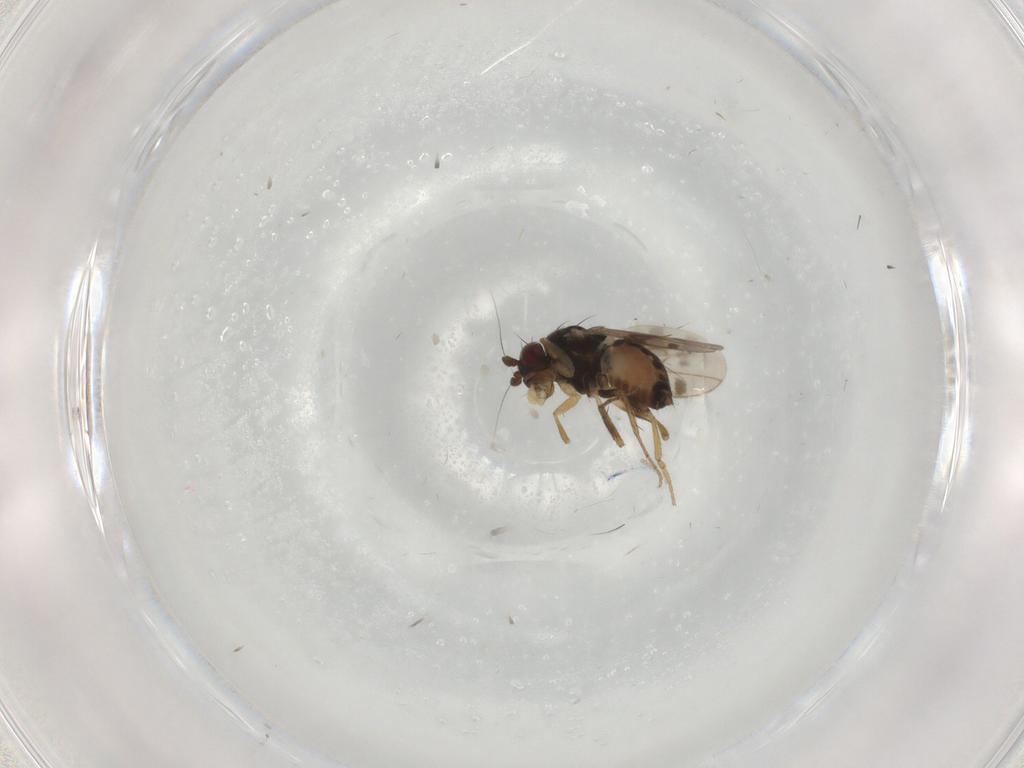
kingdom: Animalia
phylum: Arthropoda
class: Insecta
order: Diptera
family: Sphaeroceridae
